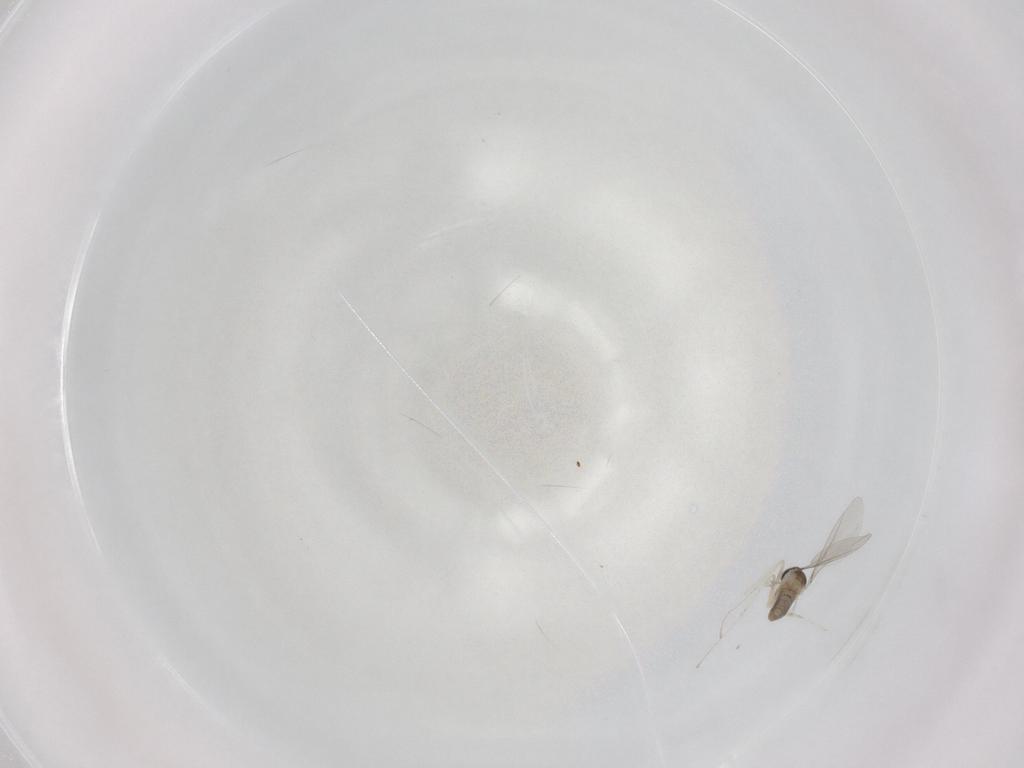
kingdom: Animalia
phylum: Arthropoda
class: Insecta
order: Diptera
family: Cecidomyiidae
